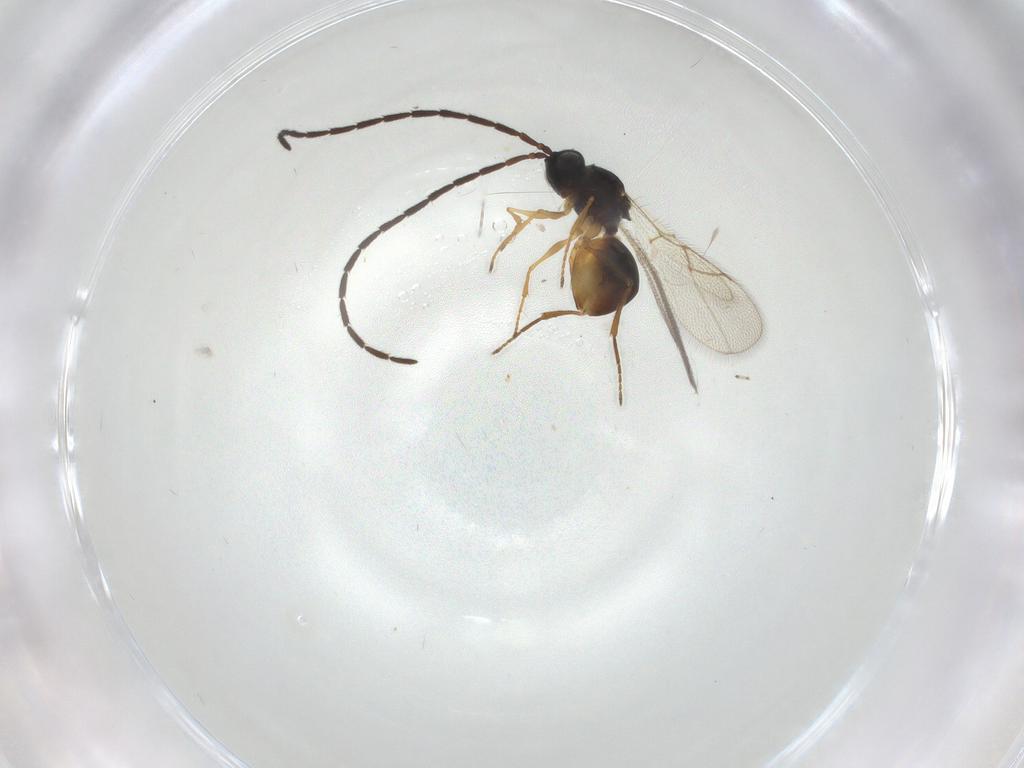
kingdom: Animalia
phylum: Arthropoda
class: Insecta
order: Hymenoptera
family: Figitidae
